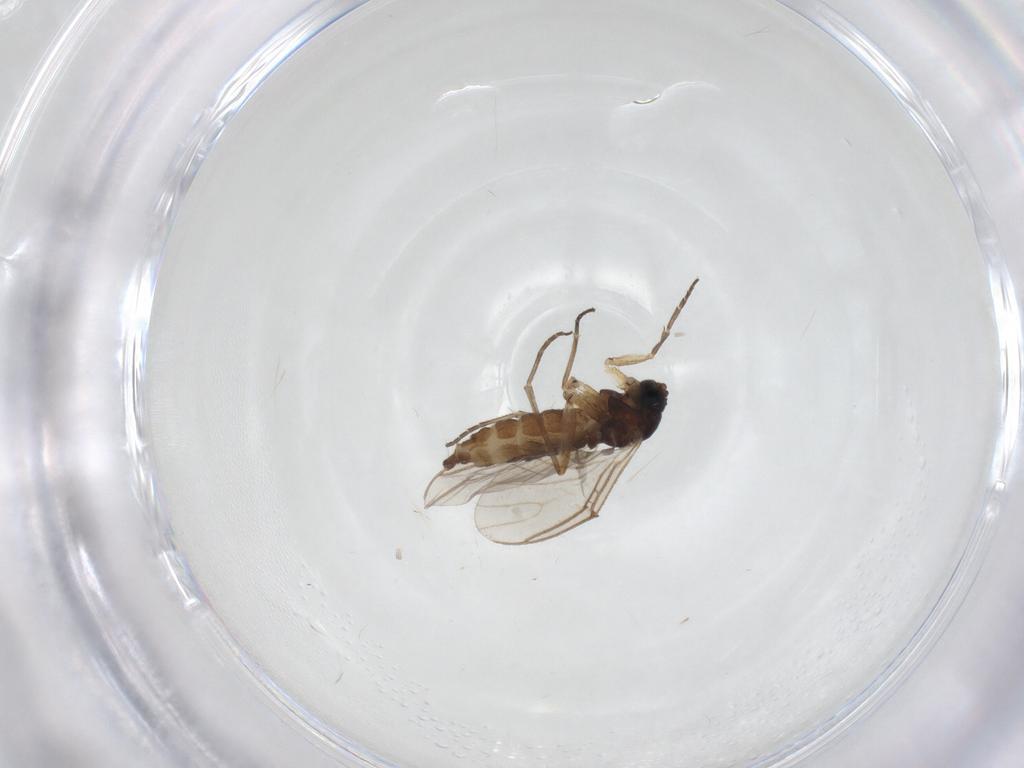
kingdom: Animalia
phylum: Arthropoda
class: Insecta
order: Diptera
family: Sciaridae
